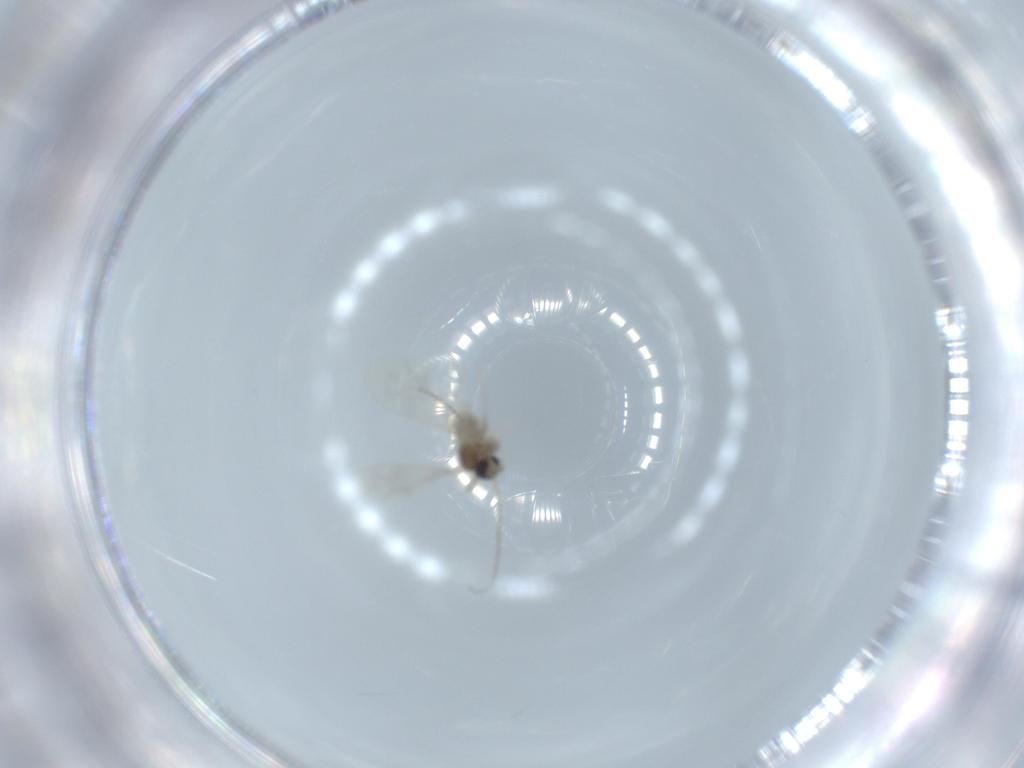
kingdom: Animalia
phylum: Arthropoda
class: Insecta
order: Diptera
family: Cecidomyiidae
